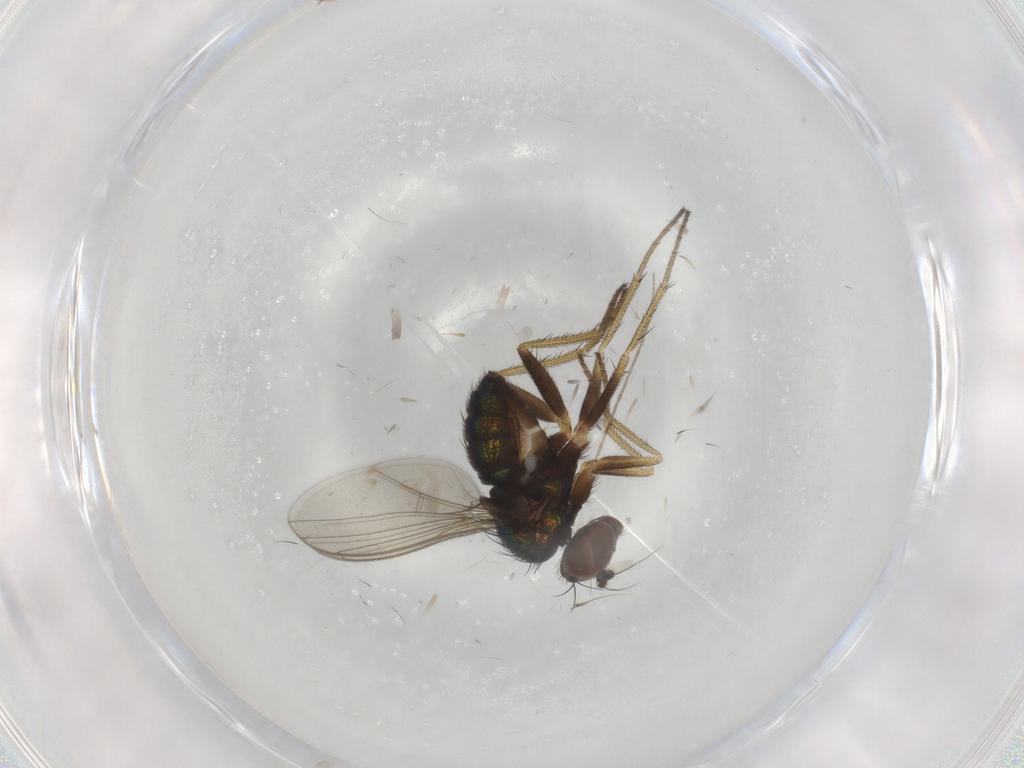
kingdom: Animalia
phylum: Arthropoda
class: Insecta
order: Diptera
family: Chironomidae
